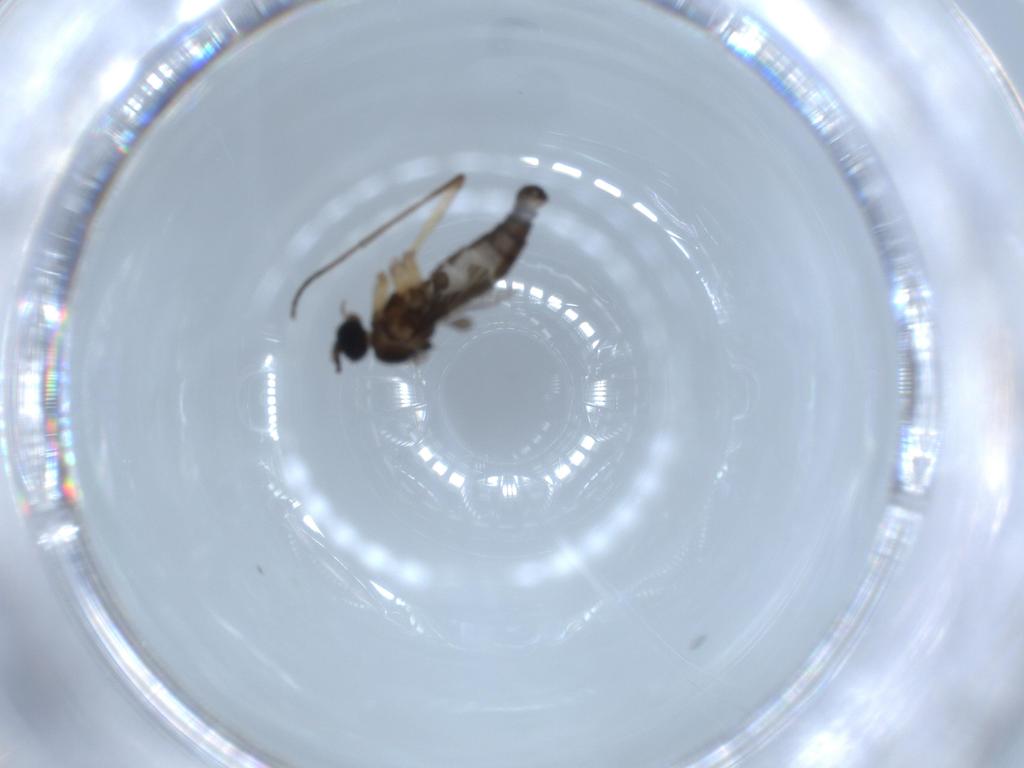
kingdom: Animalia
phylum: Arthropoda
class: Insecta
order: Diptera
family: Sciaridae
